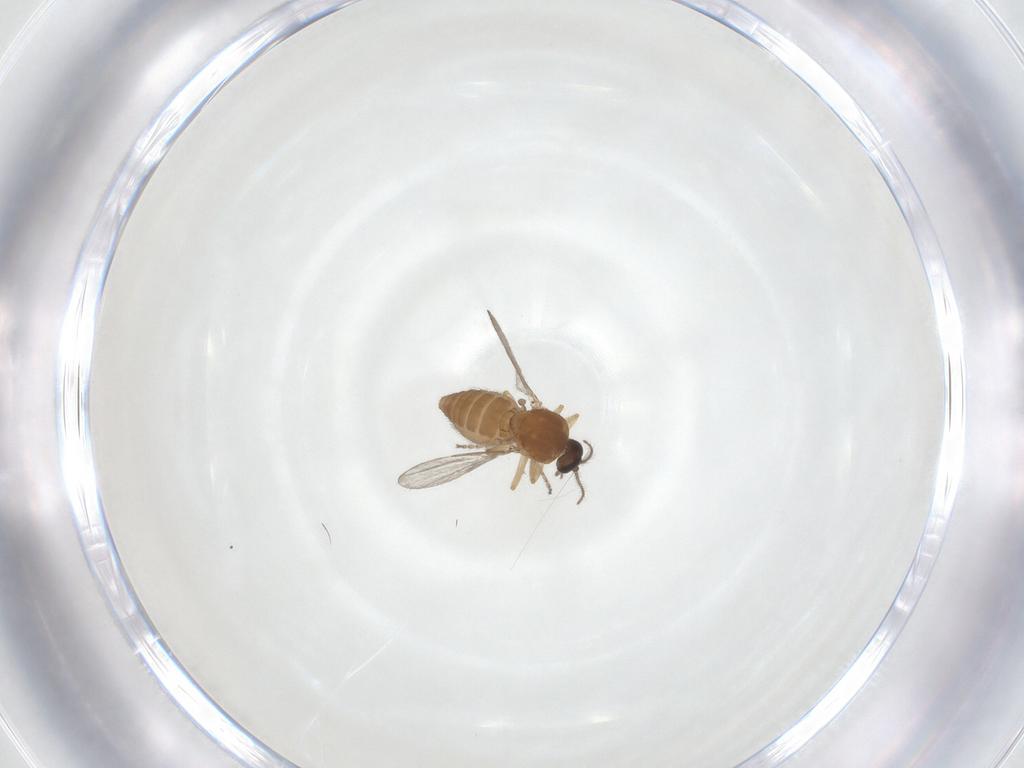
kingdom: Animalia
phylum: Arthropoda
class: Insecta
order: Diptera
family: Ceratopogonidae
